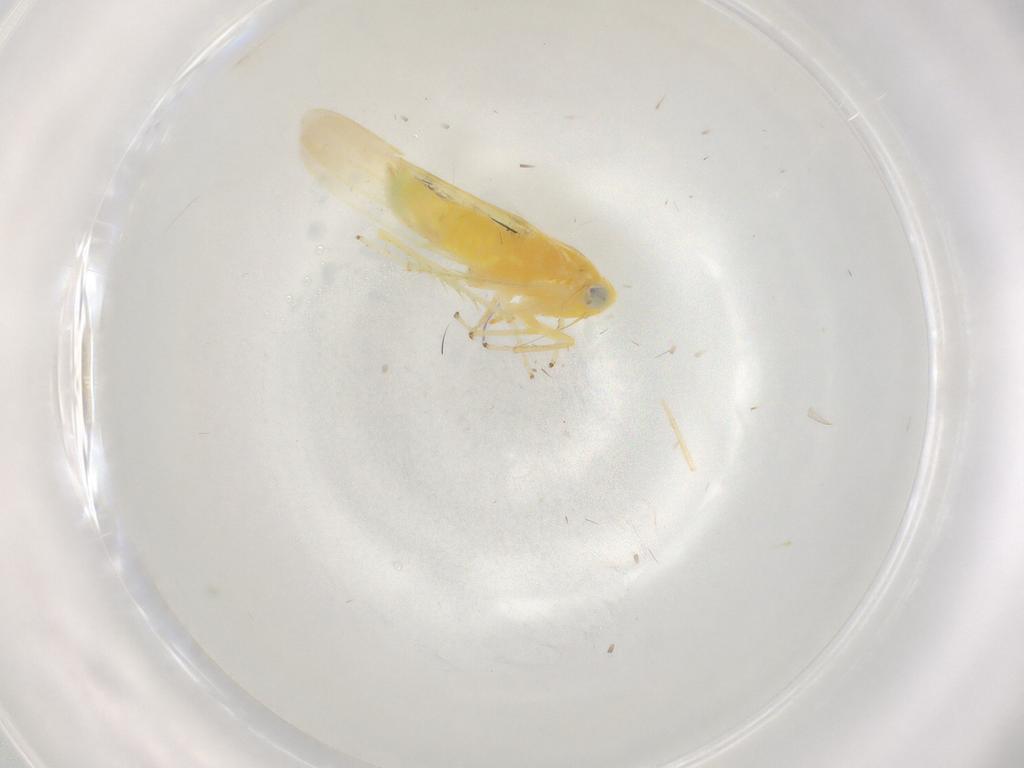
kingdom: Animalia
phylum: Arthropoda
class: Insecta
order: Hemiptera
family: Cicadellidae
